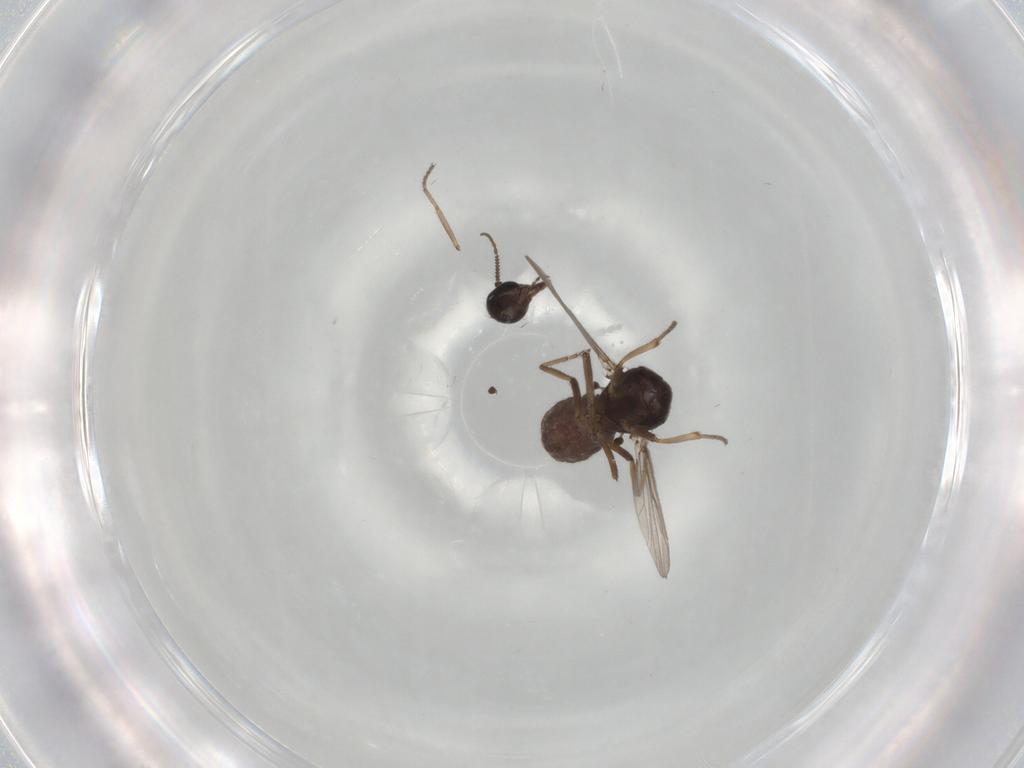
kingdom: Animalia
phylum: Arthropoda
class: Insecta
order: Diptera
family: Ceratopogonidae
